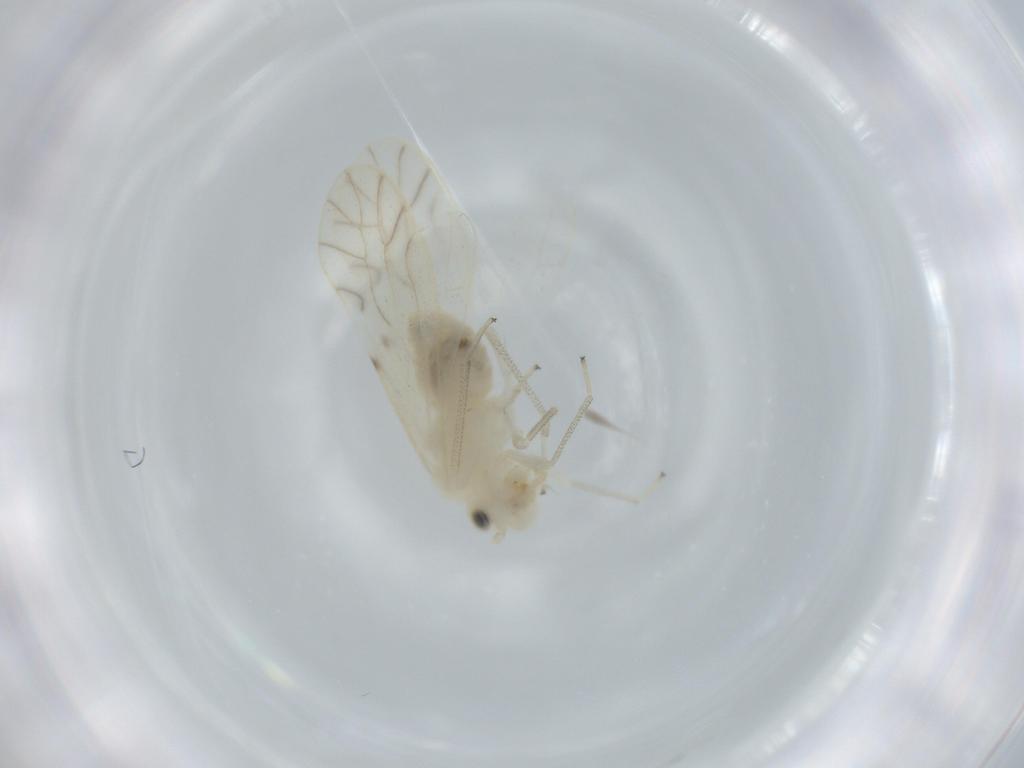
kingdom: Animalia
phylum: Arthropoda
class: Insecta
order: Psocodea
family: Caeciliusidae
